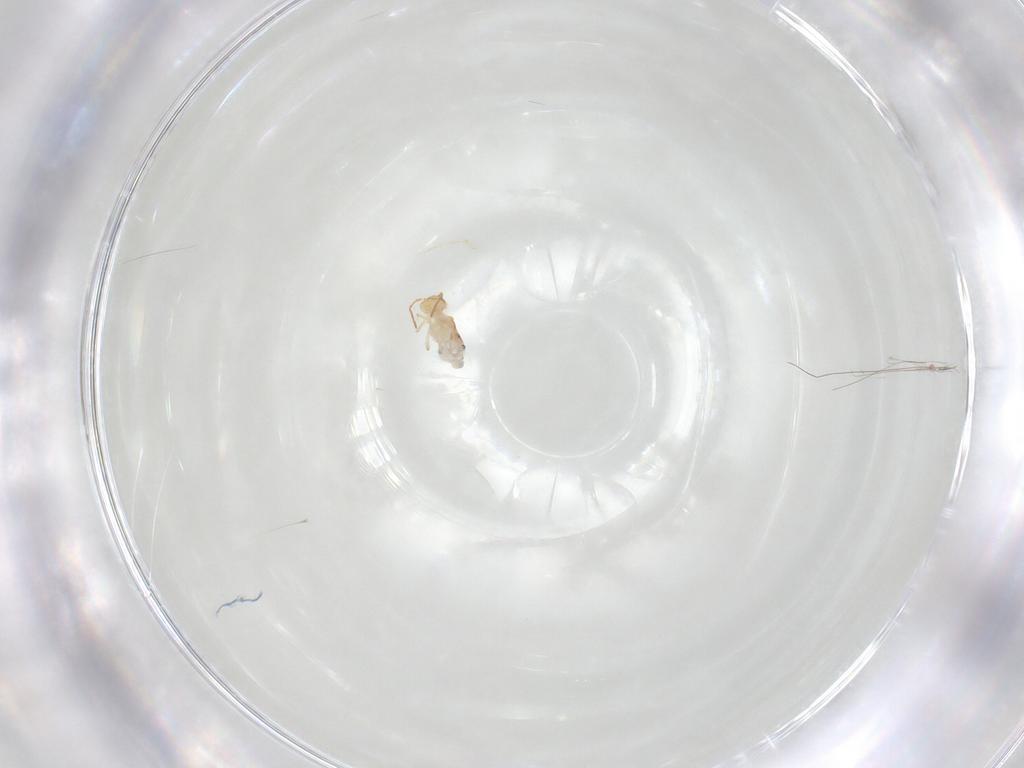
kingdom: Animalia
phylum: Arthropoda
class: Collembola
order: Symphypleona
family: Bourletiellidae
